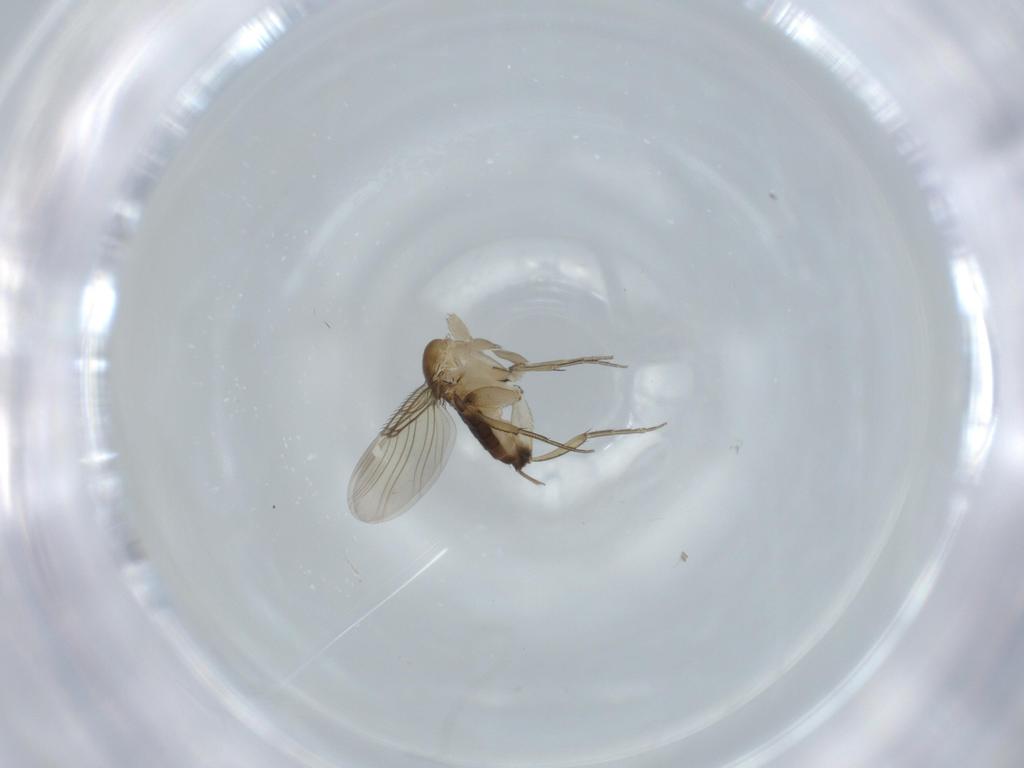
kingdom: Animalia
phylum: Arthropoda
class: Insecta
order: Diptera
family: Phoridae
